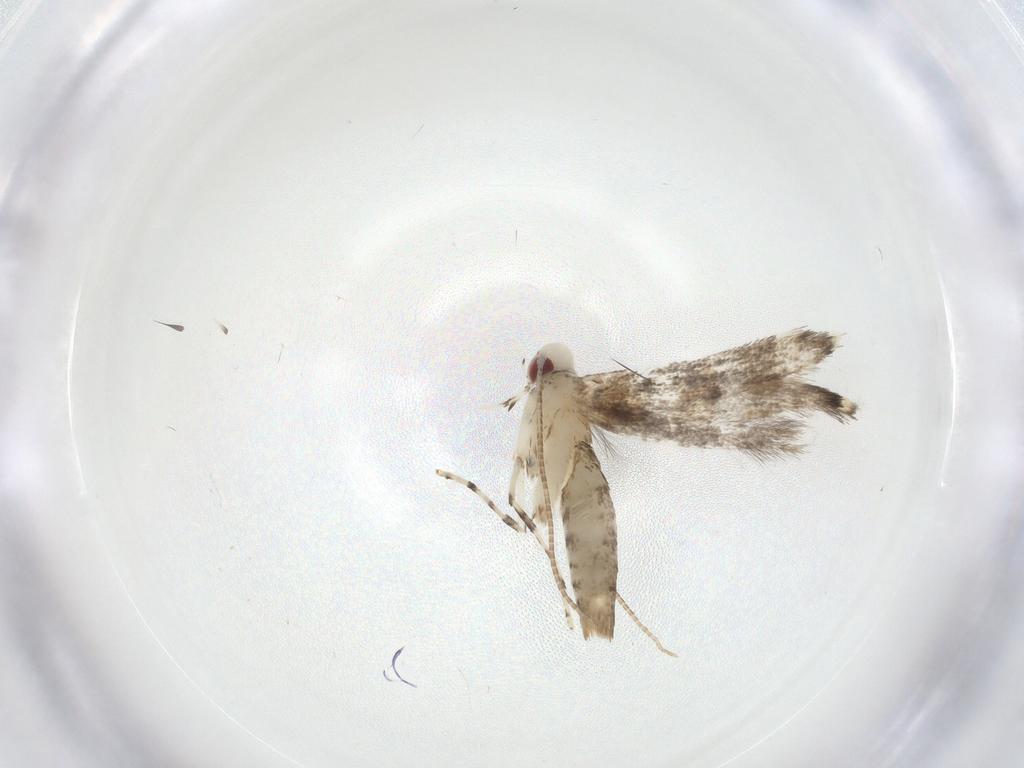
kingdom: Animalia
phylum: Arthropoda
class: Insecta
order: Lepidoptera
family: Gracillariidae
